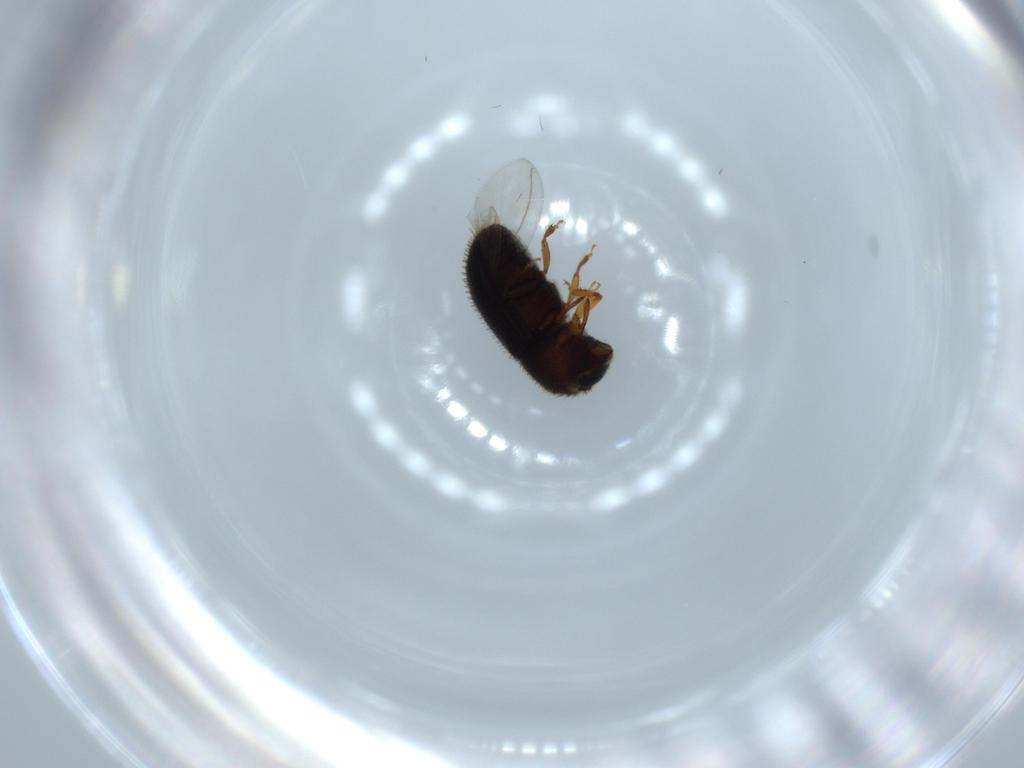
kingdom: Animalia
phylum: Arthropoda
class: Insecta
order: Coleoptera
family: Curculionidae
